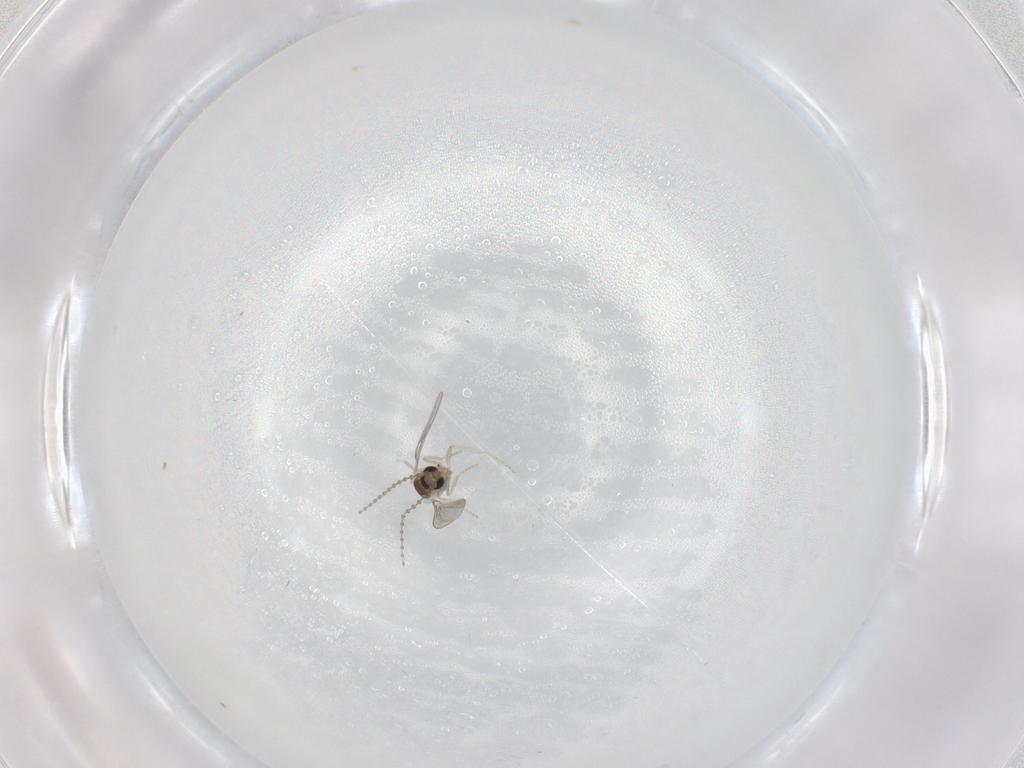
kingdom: Animalia
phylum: Arthropoda
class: Insecta
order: Diptera
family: Cecidomyiidae
